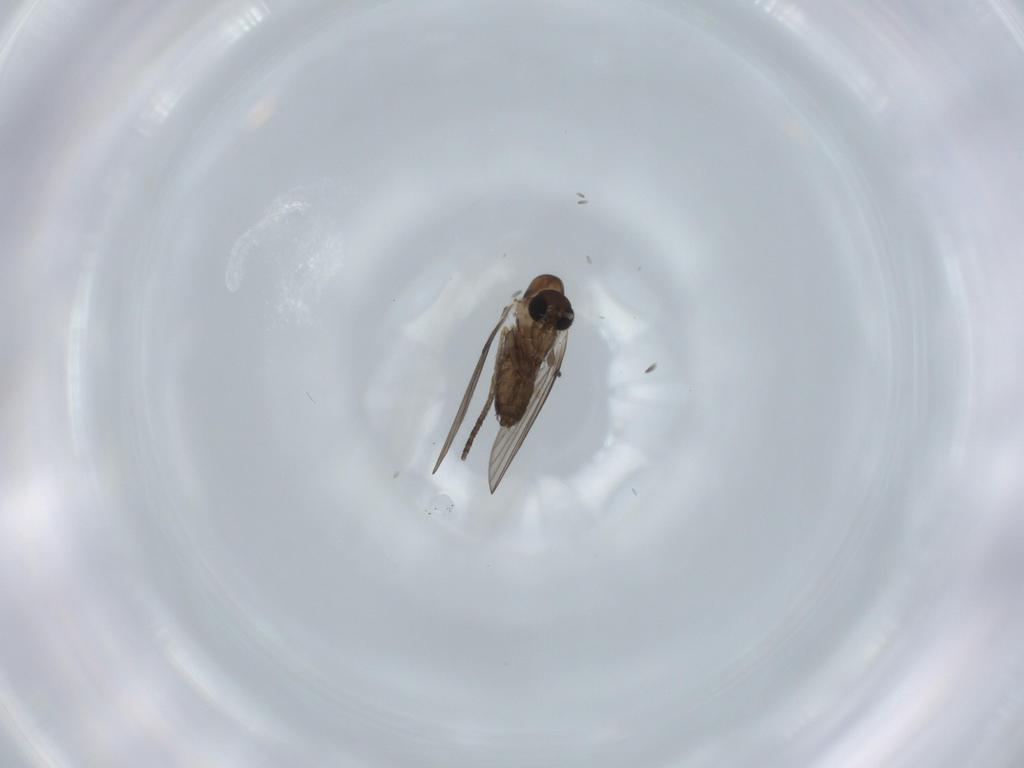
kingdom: Animalia
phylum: Arthropoda
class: Insecta
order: Diptera
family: Psychodidae
